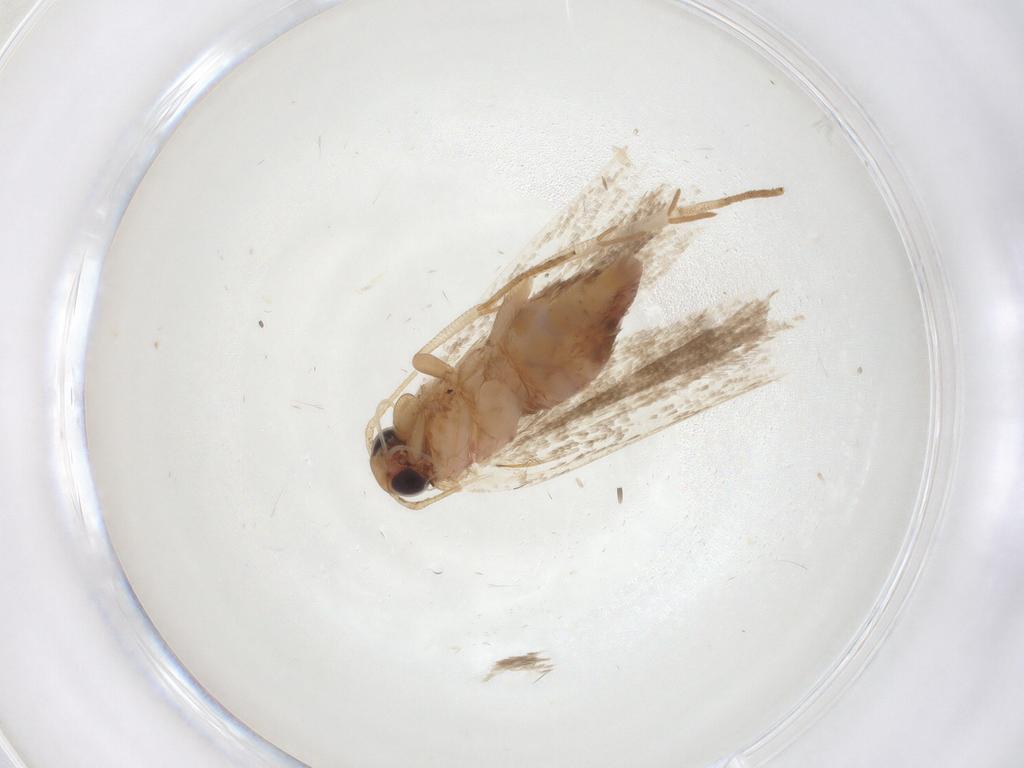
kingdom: Animalia
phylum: Arthropoda
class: Insecta
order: Lepidoptera
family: Gelechiidae
